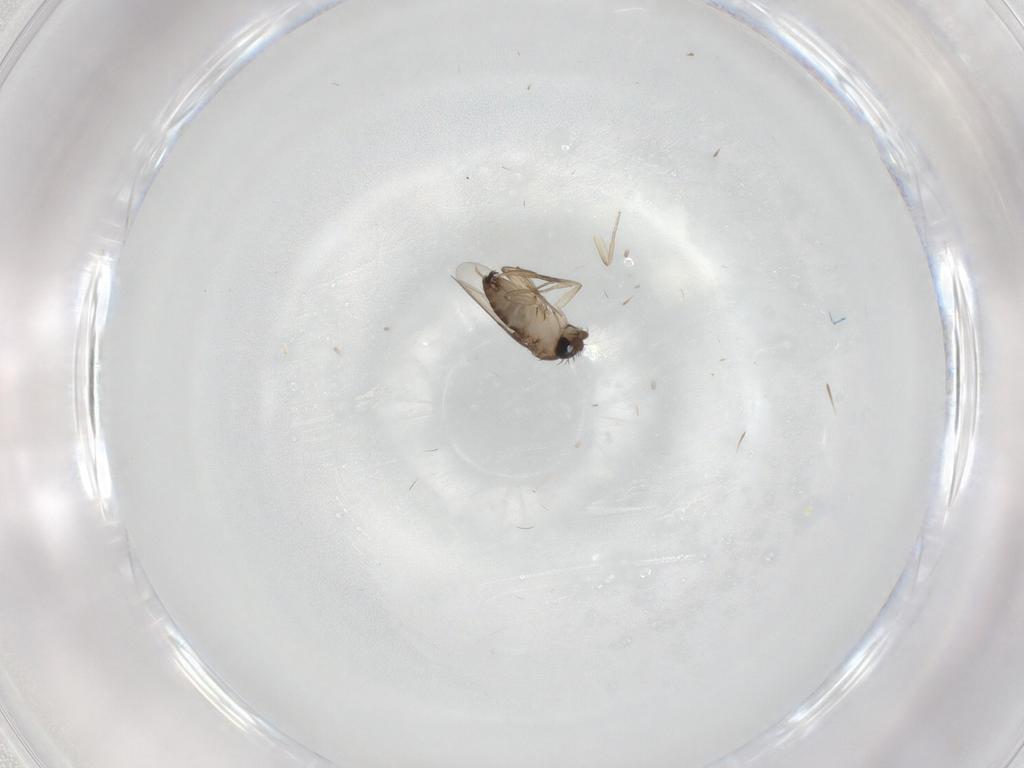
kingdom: Animalia
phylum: Arthropoda
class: Insecta
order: Diptera
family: Phoridae
